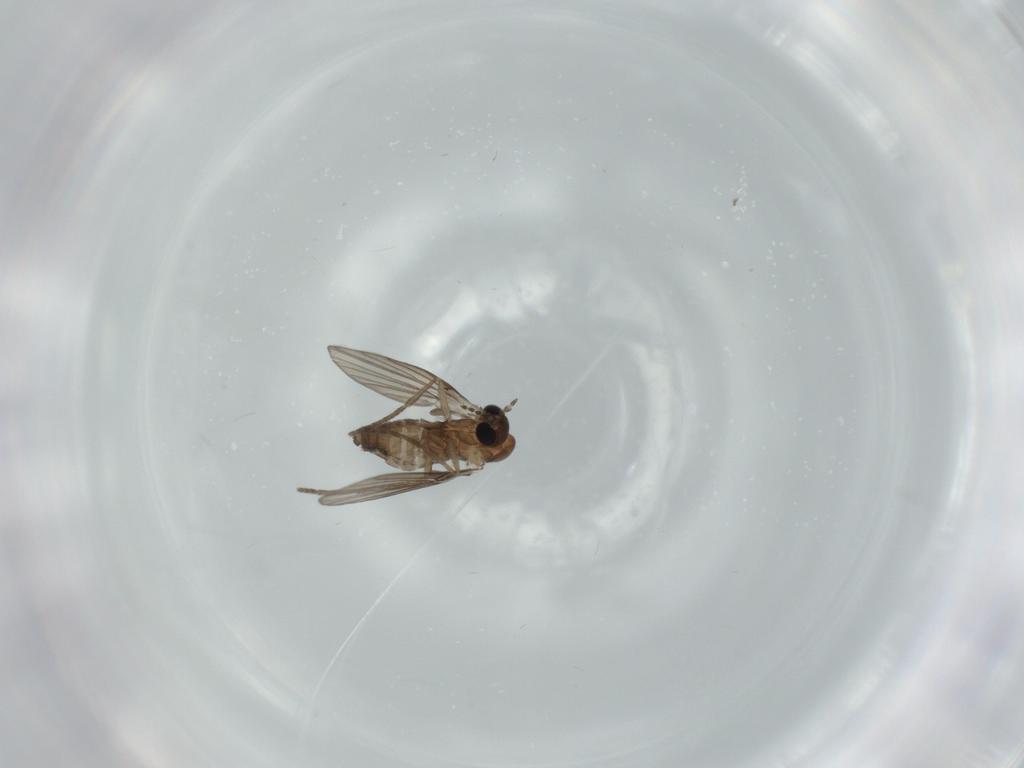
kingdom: Animalia
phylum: Arthropoda
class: Insecta
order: Diptera
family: Psychodidae
